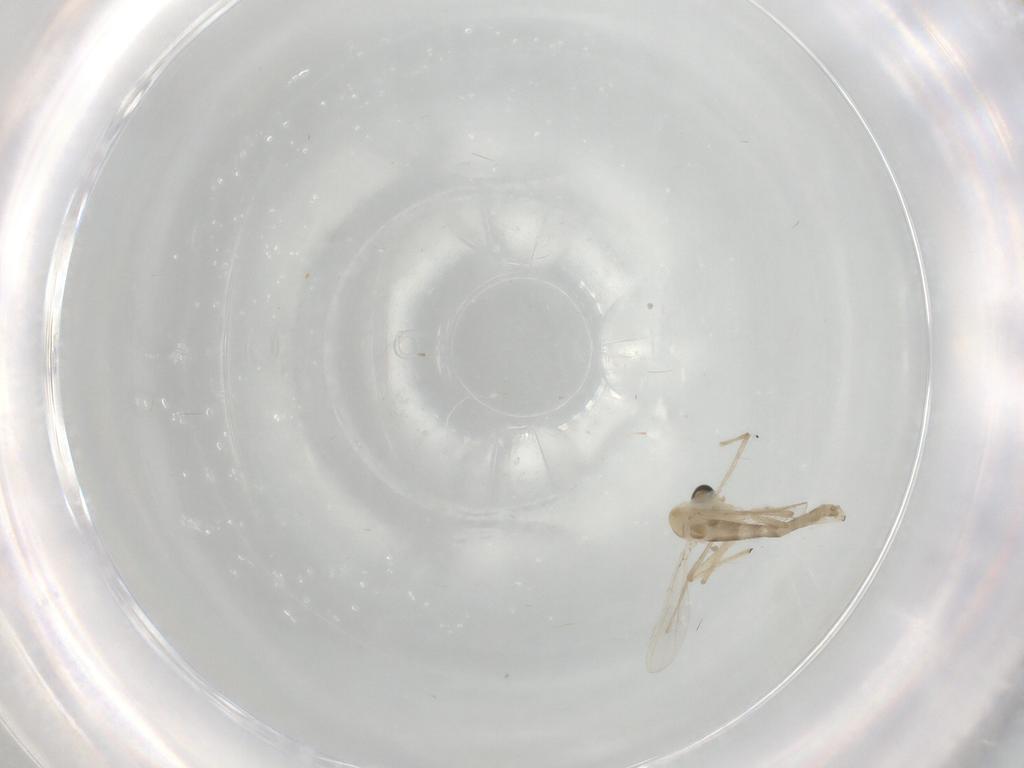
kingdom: Animalia
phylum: Arthropoda
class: Insecta
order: Diptera
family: Chironomidae
